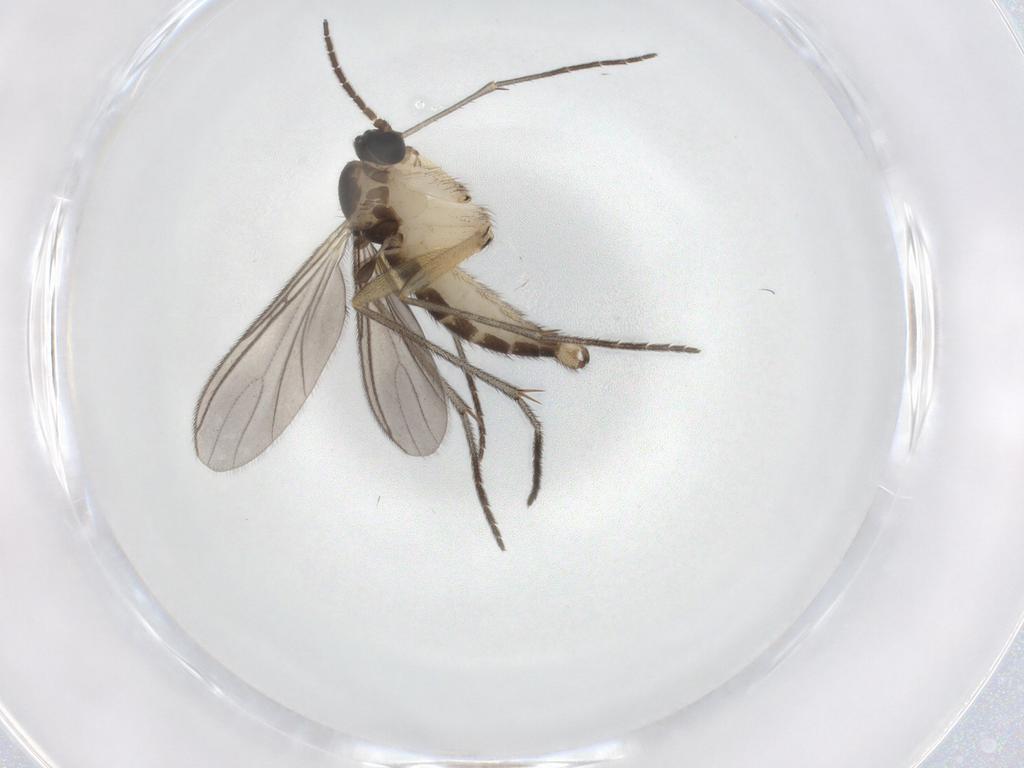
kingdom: Animalia
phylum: Arthropoda
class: Insecta
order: Diptera
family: Sciaridae
